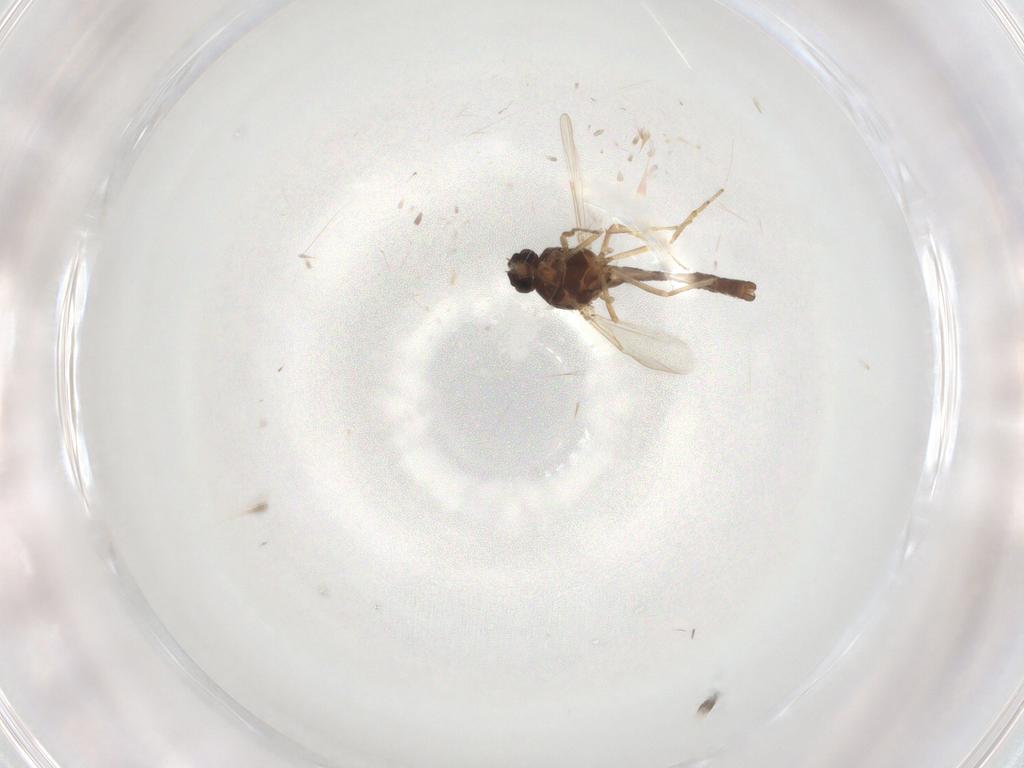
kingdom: Animalia
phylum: Arthropoda
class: Insecta
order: Diptera
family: Ceratopogonidae
